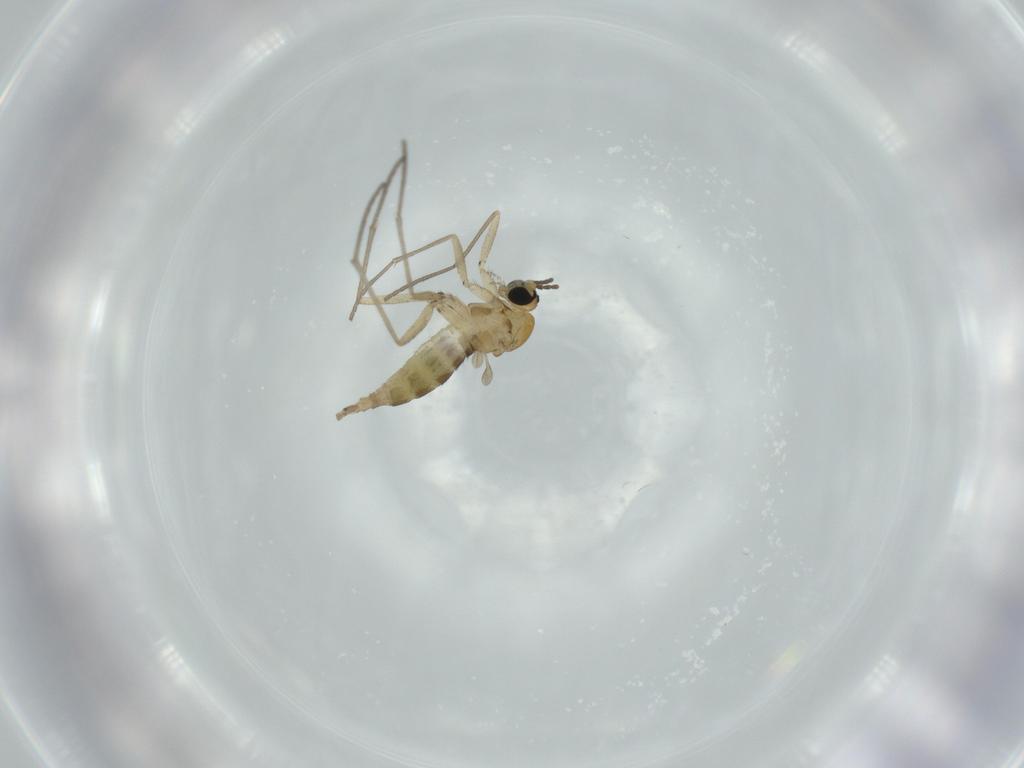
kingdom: Animalia
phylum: Arthropoda
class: Insecta
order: Diptera
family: Sciaridae
